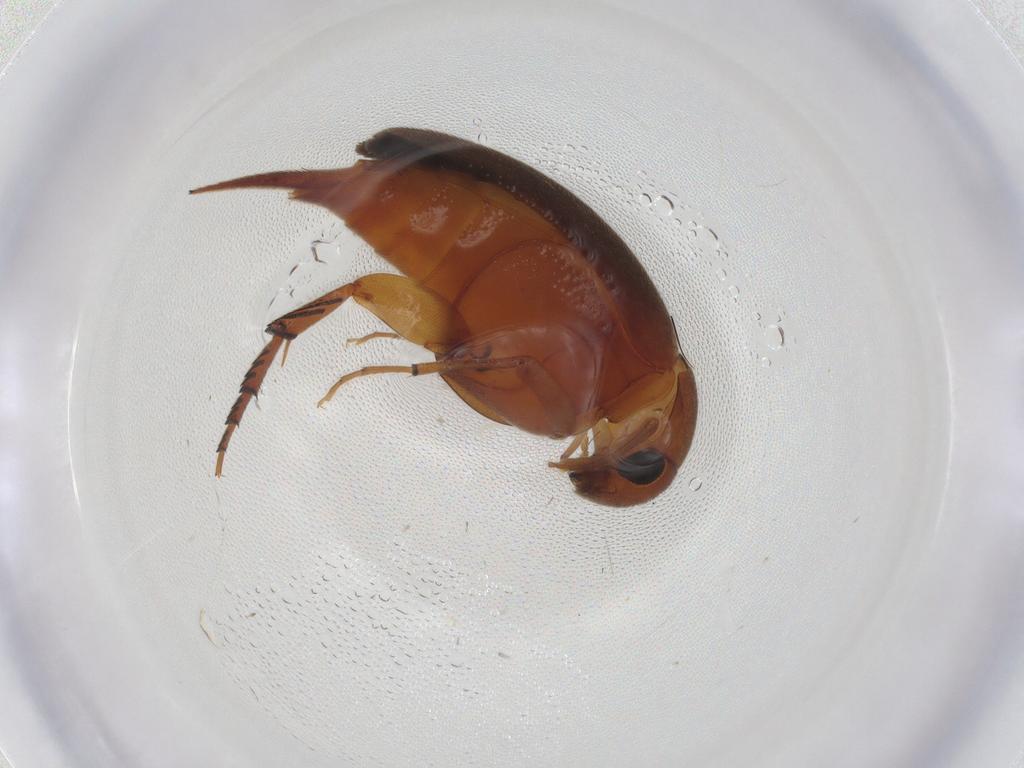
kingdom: Animalia
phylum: Arthropoda
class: Insecta
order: Coleoptera
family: Mordellidae
